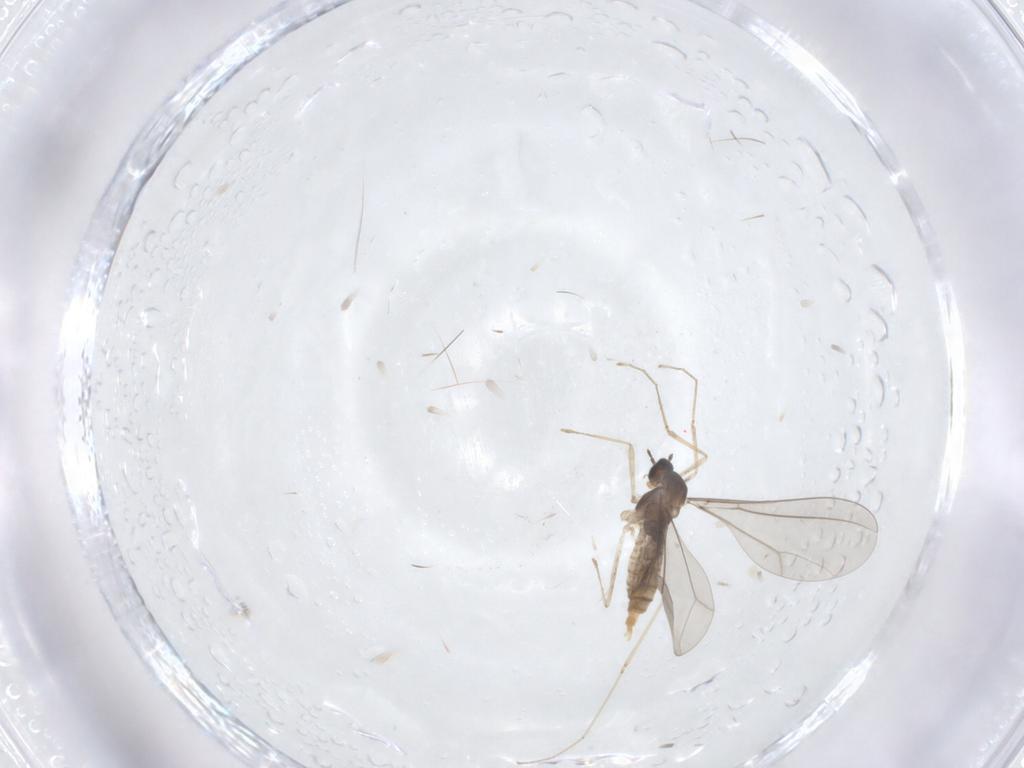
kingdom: Animalia
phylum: Arthropoda
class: Insecta
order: Diptera
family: Cecidomyiidae
